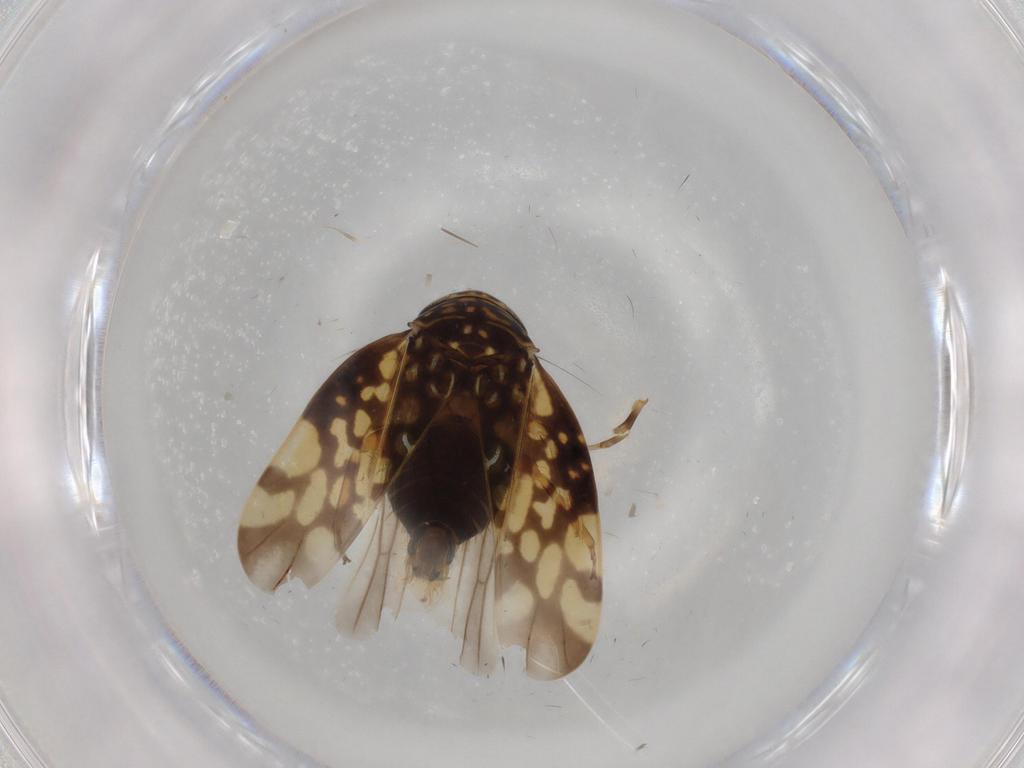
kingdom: Animalia
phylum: Arthropoda
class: Insecta
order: Hemiptera
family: Cicadellidae
